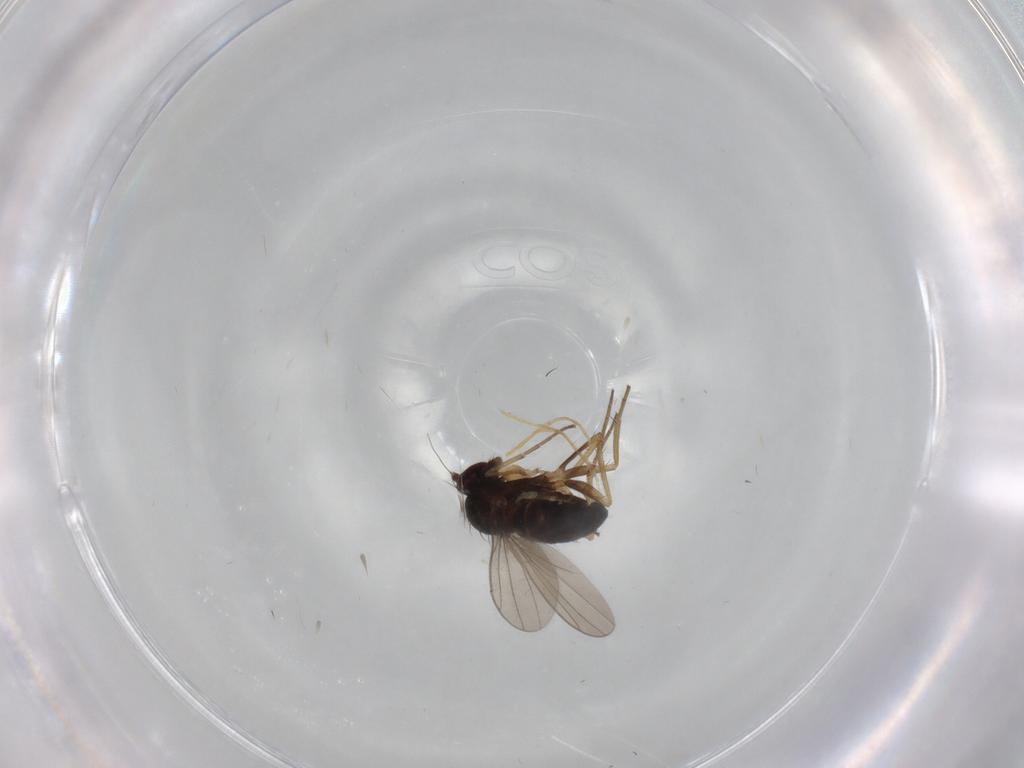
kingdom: Animalia
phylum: Arthropoda
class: Insecta
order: Diptera
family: Dolichopodidae
